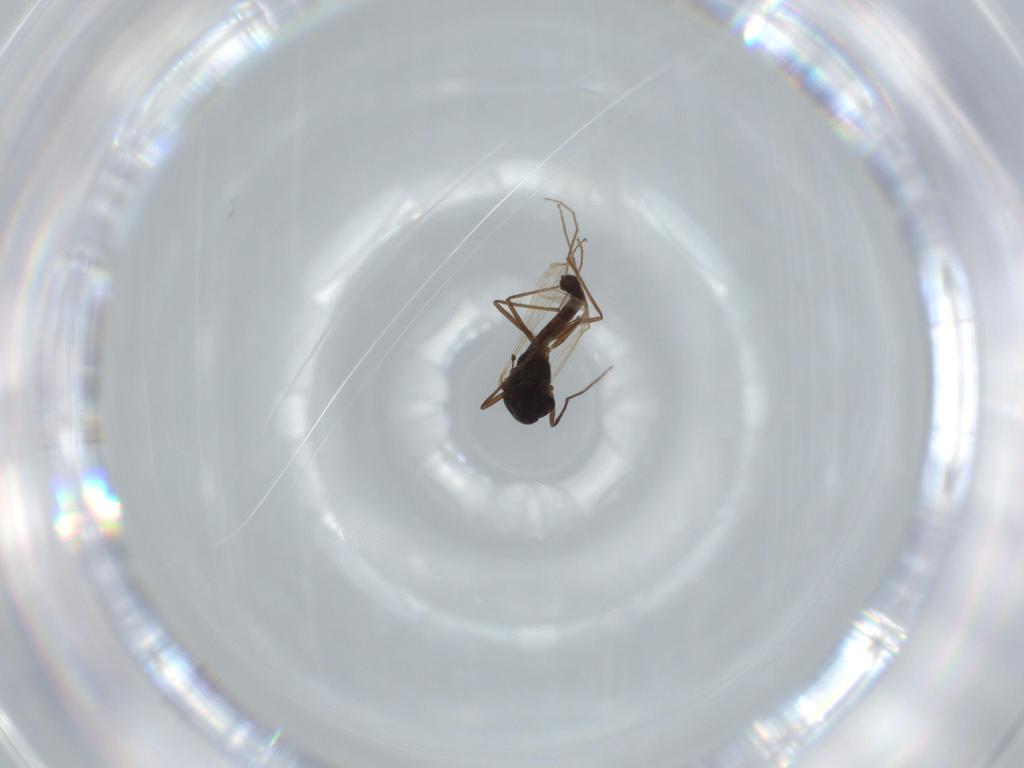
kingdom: Animalia
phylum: Arthropoda
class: Insecta
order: Diptera
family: Chironomidae
